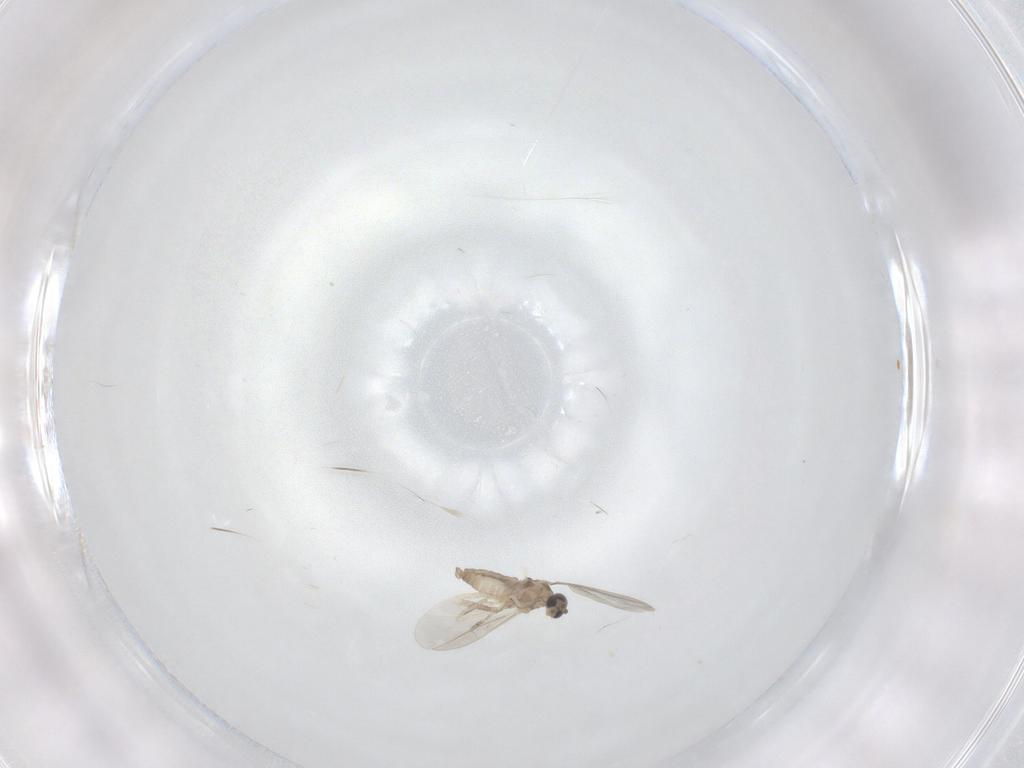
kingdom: Animalia
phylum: Arthropoda
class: Insecta
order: Diptera
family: Cecidomyiidae
